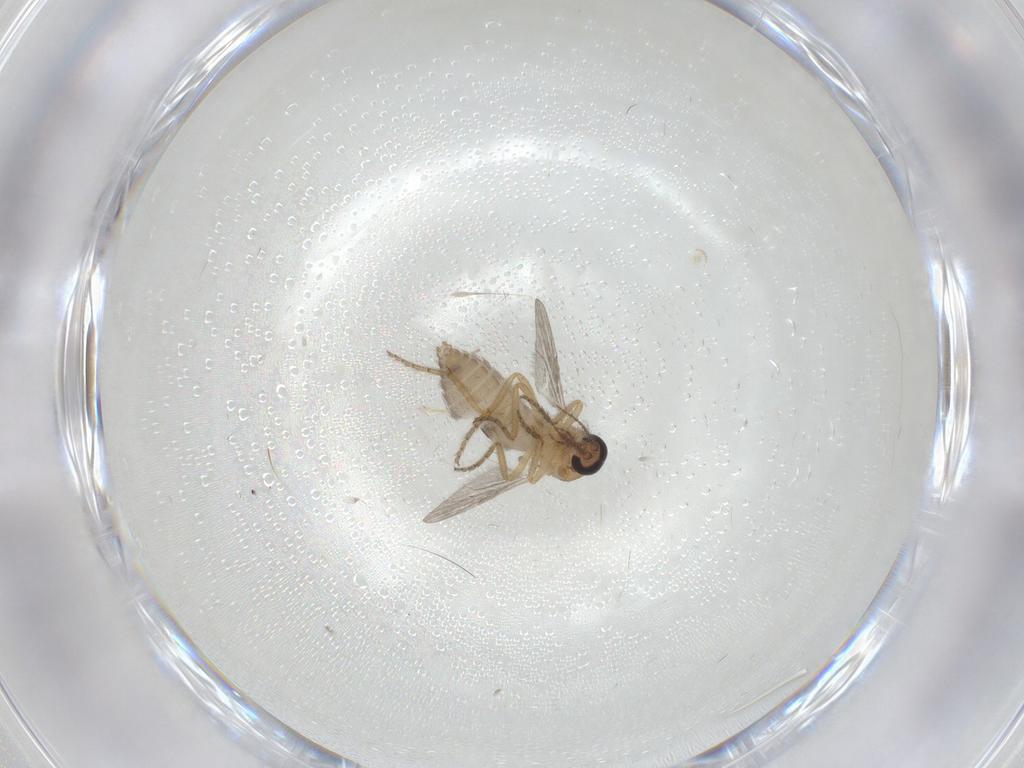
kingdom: Animalia
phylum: Arthropoda
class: Insecta
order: Diptera
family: Ceratopogonidae
